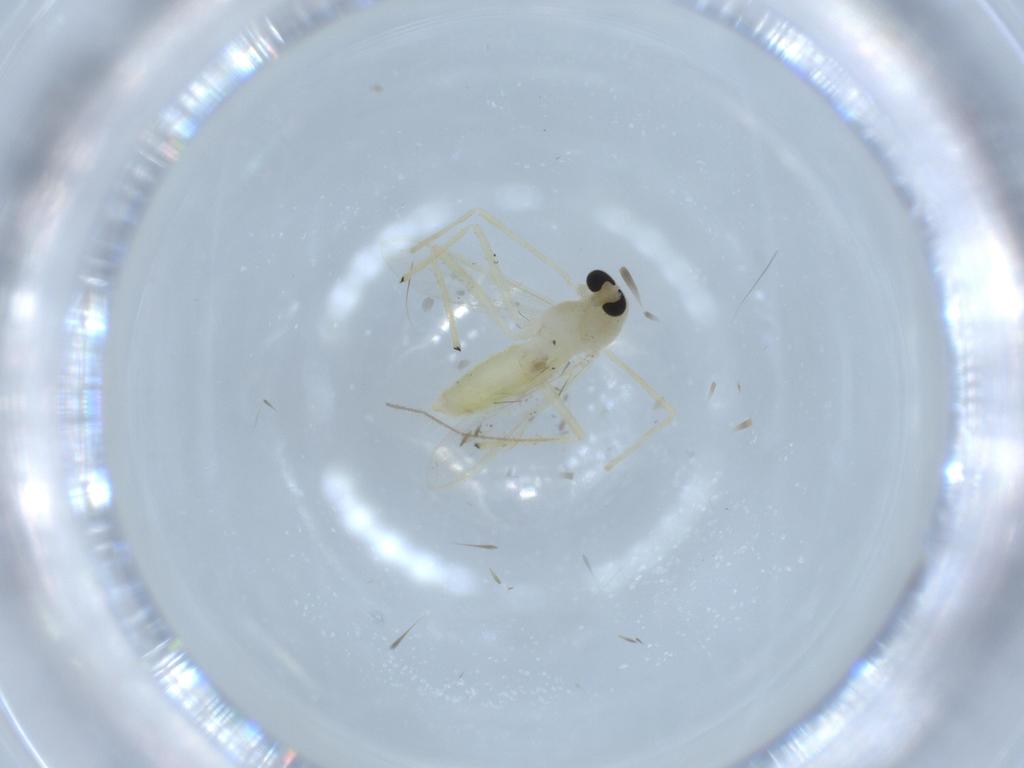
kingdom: Animalia
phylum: Arthropoda
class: Insecta
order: Diptera
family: Chironomidae
